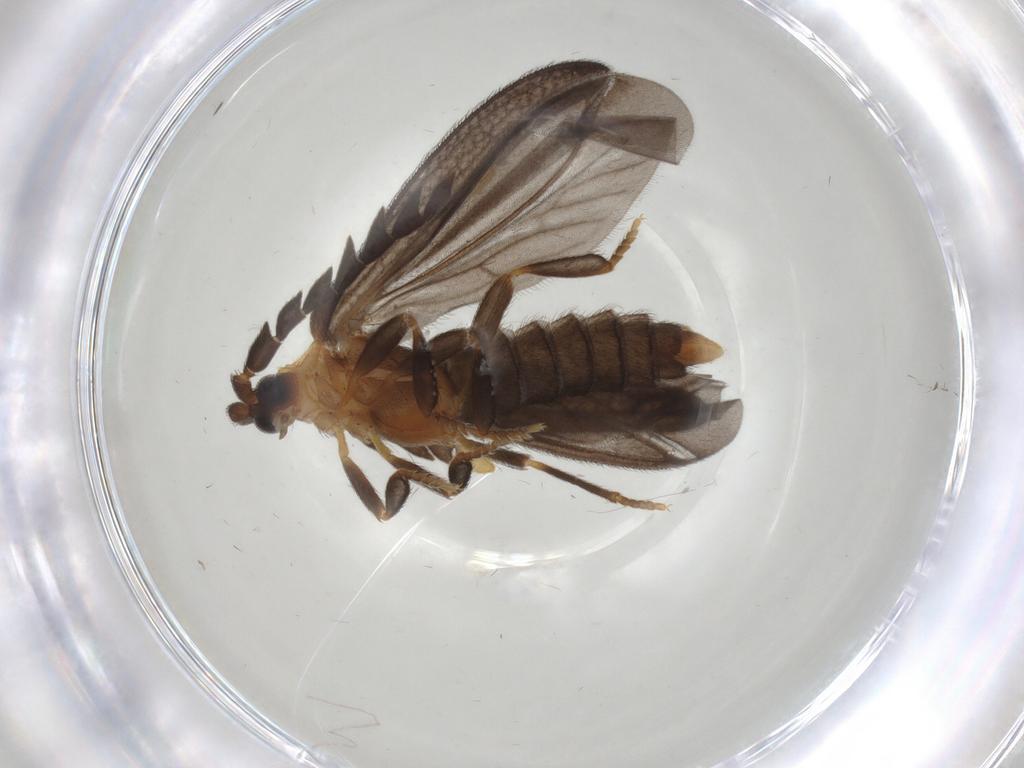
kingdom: Animalia
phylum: Arthropoda
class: Insecta
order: Coleoptera
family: Lycidae
